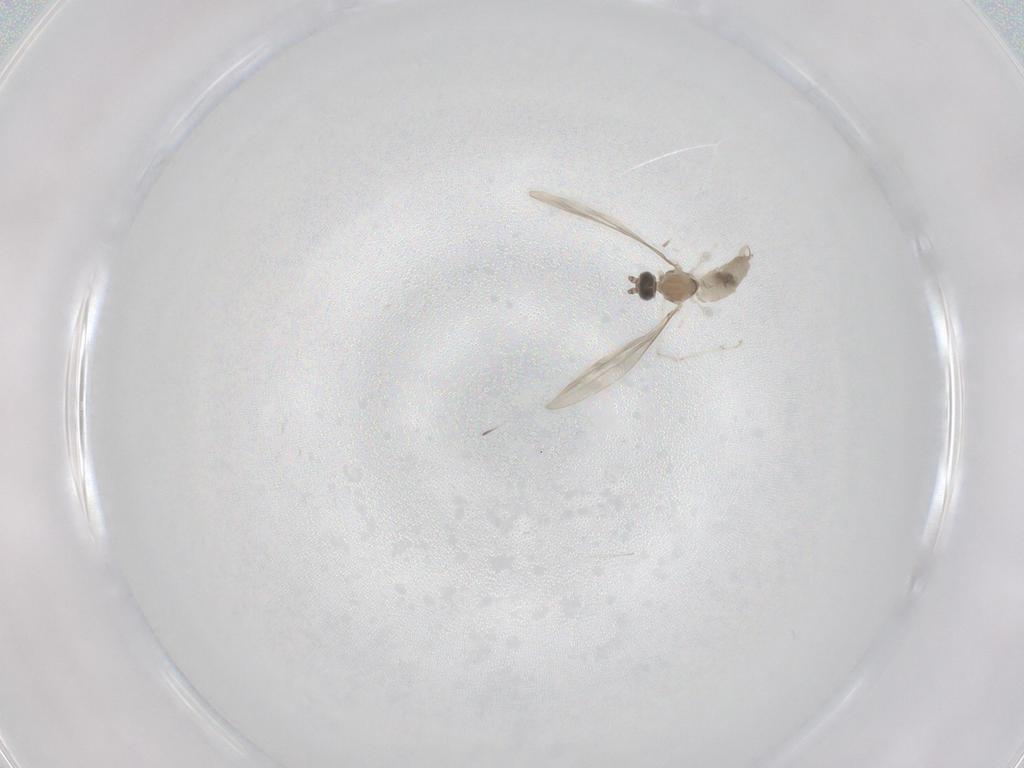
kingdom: Animalia
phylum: Arthropoda
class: Insecta
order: Diptera
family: Cecidomyiidae
